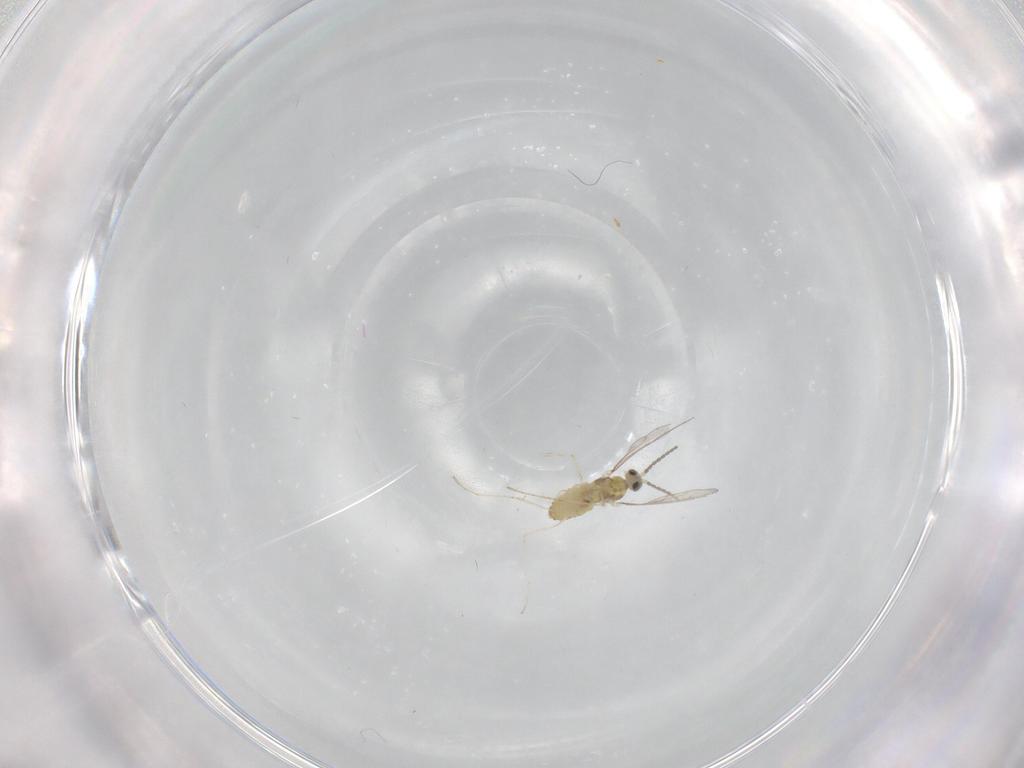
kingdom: Animalia
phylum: Arthropoda
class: Insecta
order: Diptera
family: Cecidomyiidae
